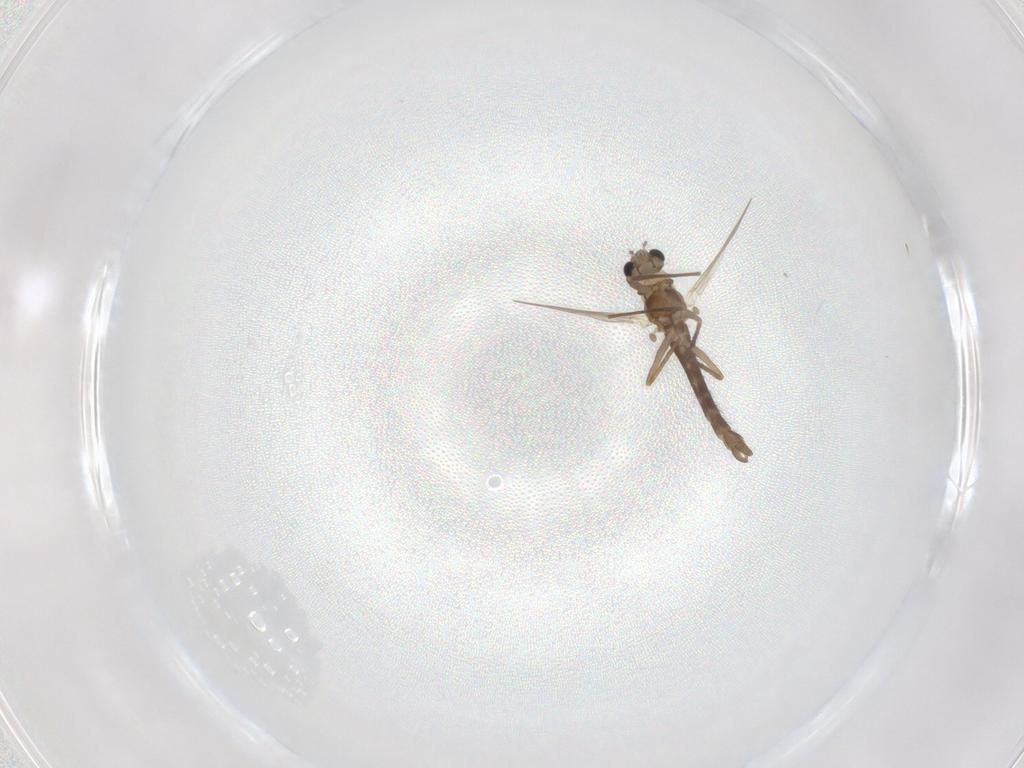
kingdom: Animalia
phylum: Arthropoda
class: Insecta
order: Diptera
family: Chironomidae
